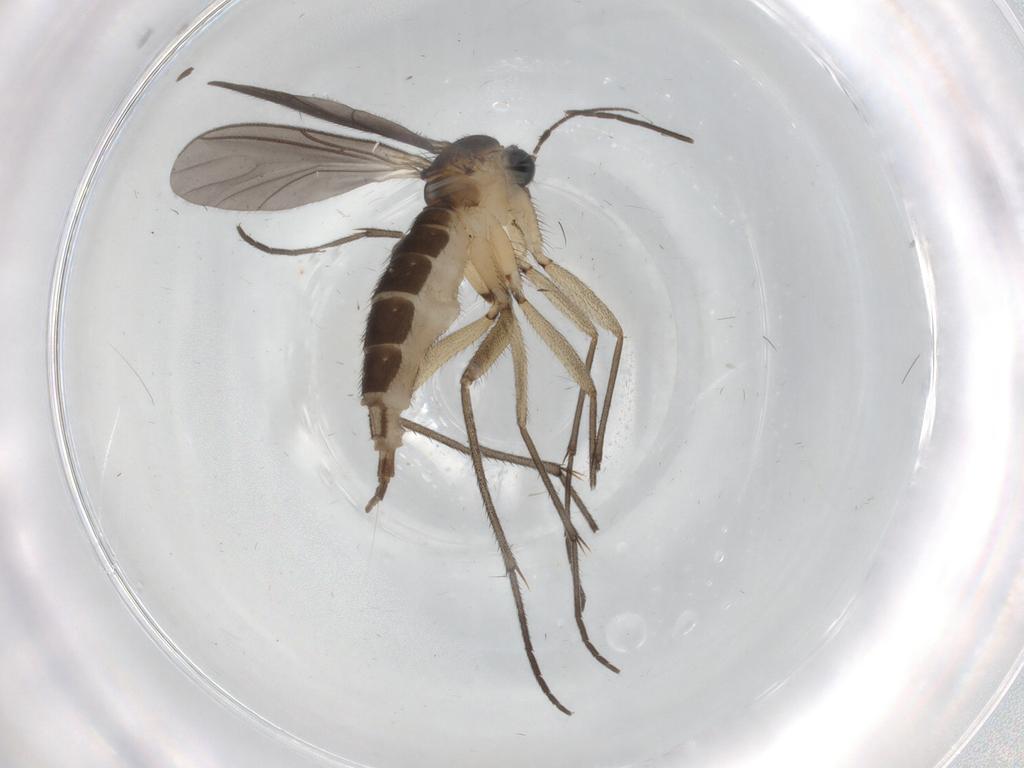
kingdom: Animalia
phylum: Arthropoda
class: Insecta
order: Diptera
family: Sciaridae
